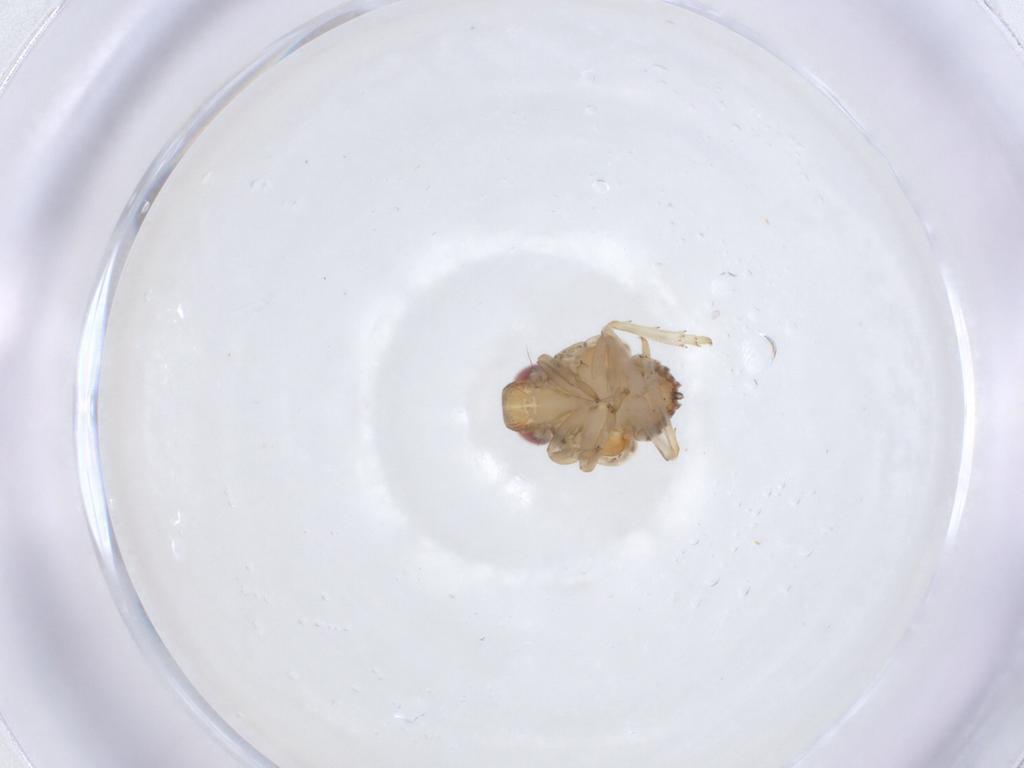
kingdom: Animalia
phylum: Arthropoda
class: Insecta
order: Hemiptera
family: Issidae
